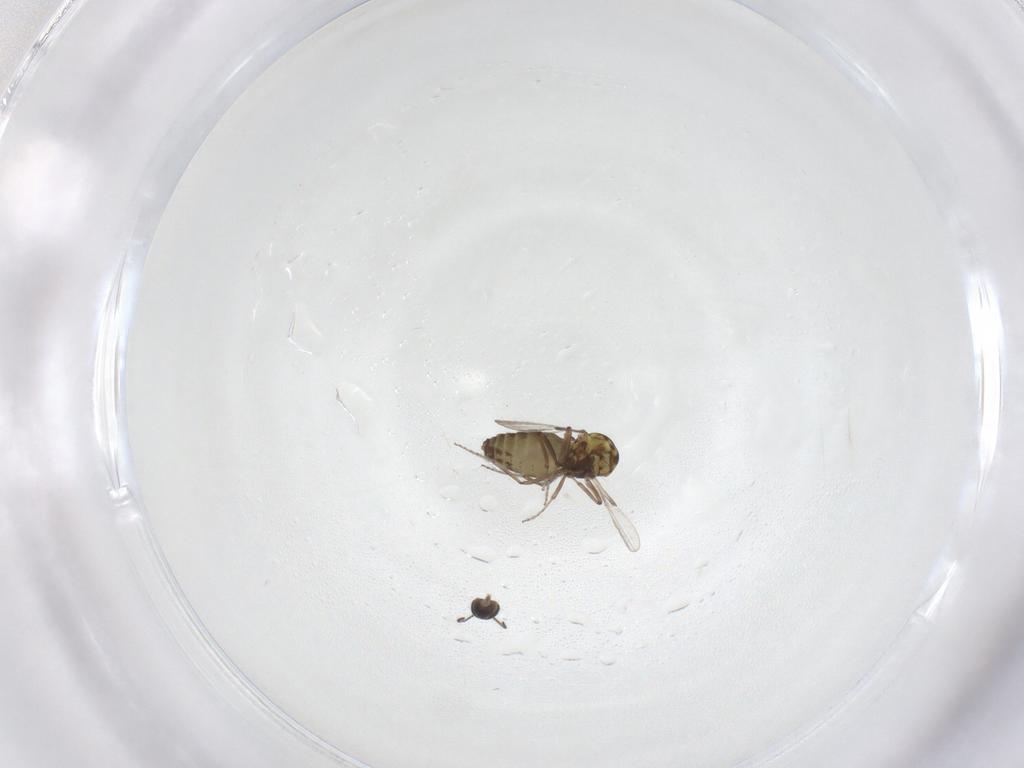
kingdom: Animalia
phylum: Arthropoda
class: Insecta
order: Diptera
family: Ceratopogonidae
